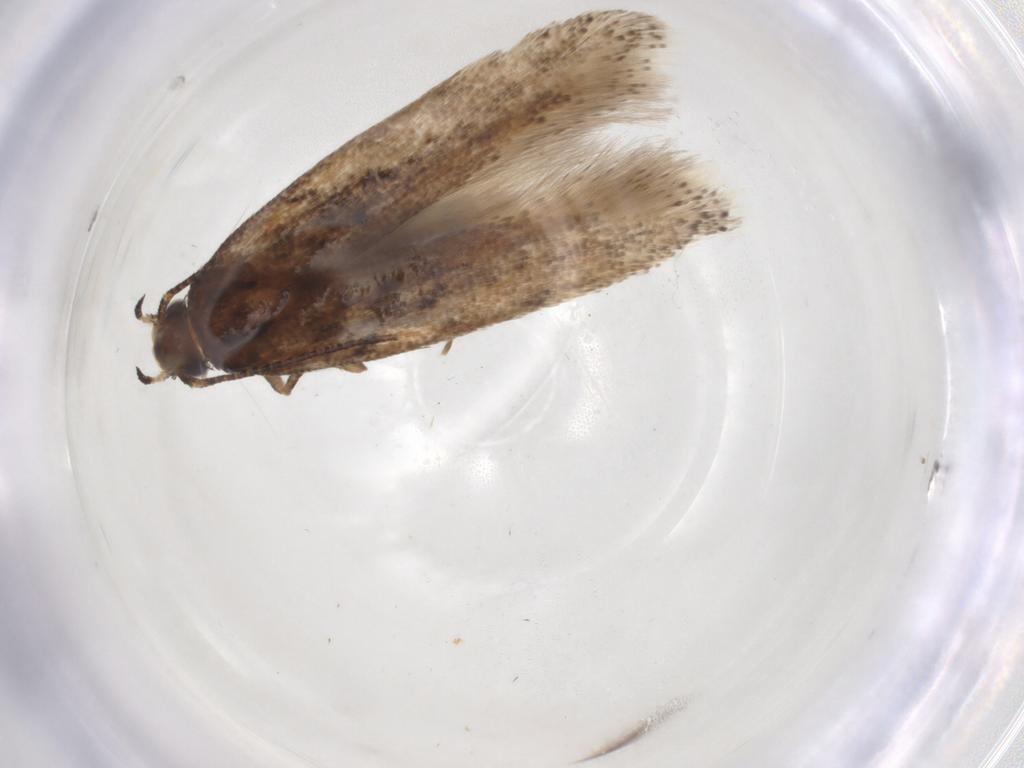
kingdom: Animalia
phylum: Arthropoda
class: Insecta
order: Lepidoptera
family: Gelechiidae
